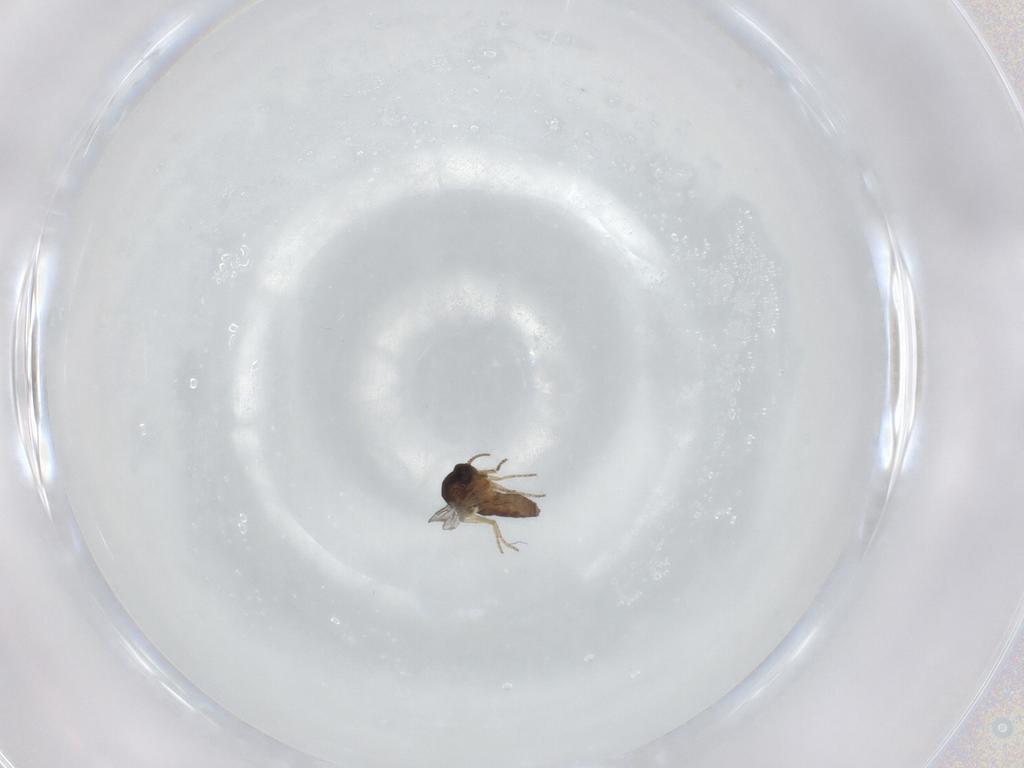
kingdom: Animalia
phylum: Arthropoda
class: Insecta
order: Diptera
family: Ceratopogonidae
